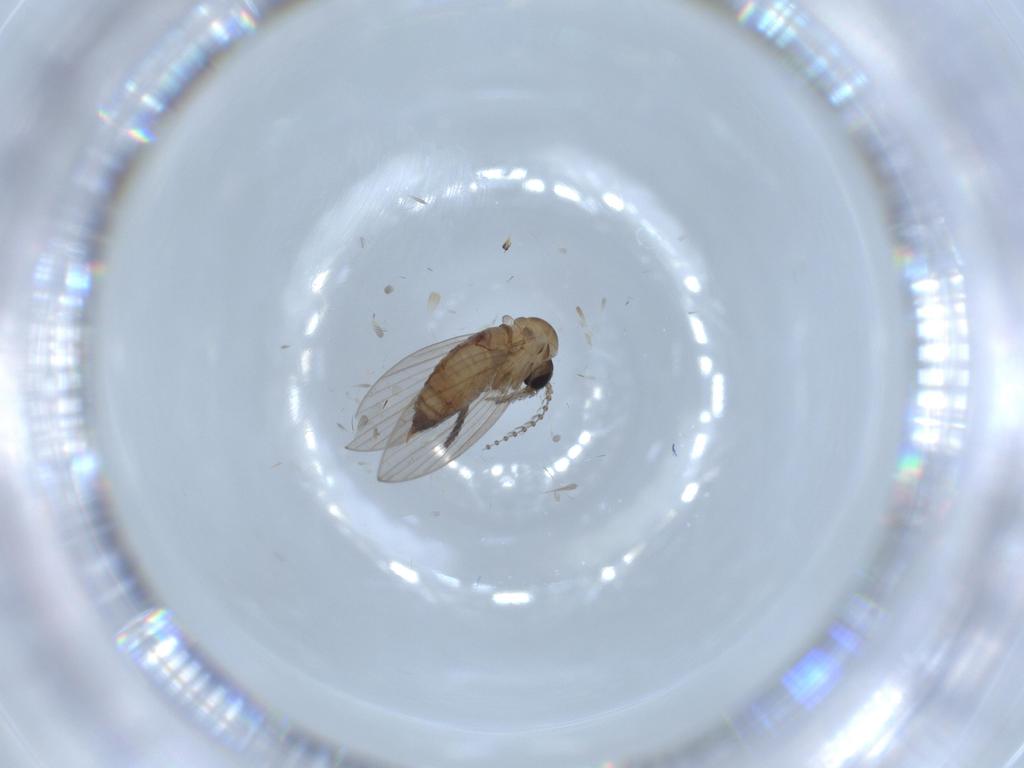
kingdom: Animalia
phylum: Arthropoda
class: Insecta
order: Diptera
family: Psychodidae
